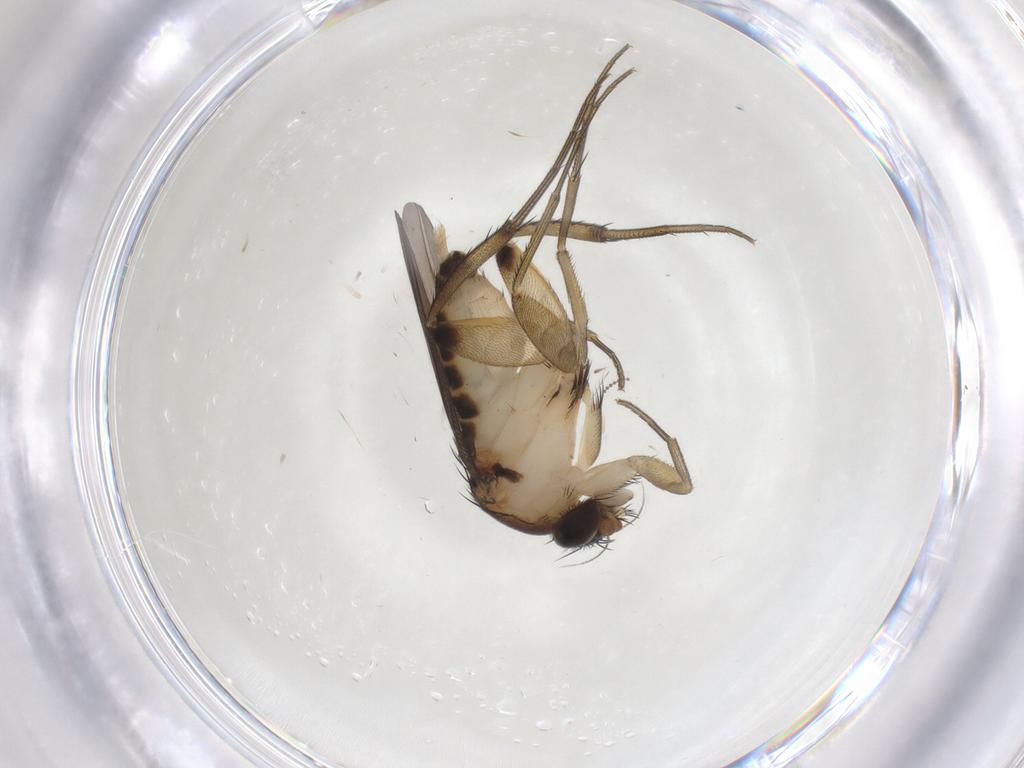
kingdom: Animalia
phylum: Arthropoda
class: Insecta
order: Diptera
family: Phoridae
